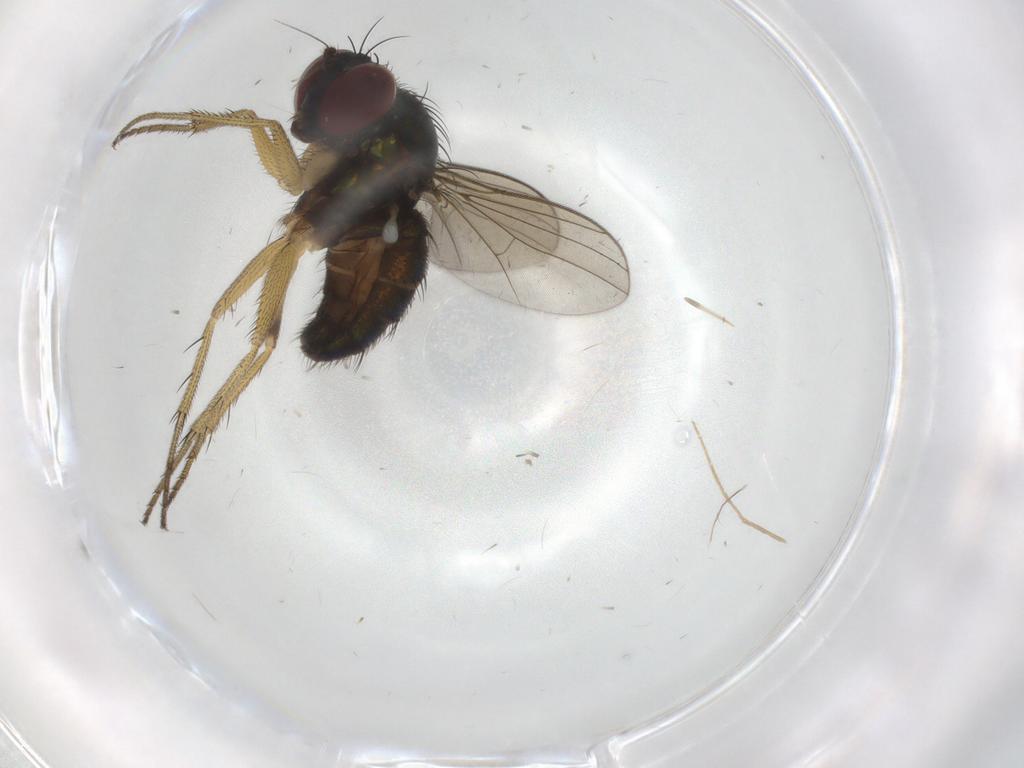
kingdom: Animalia
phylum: Arthropoda
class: Insecta
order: Diptera
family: Dolichopodidae
